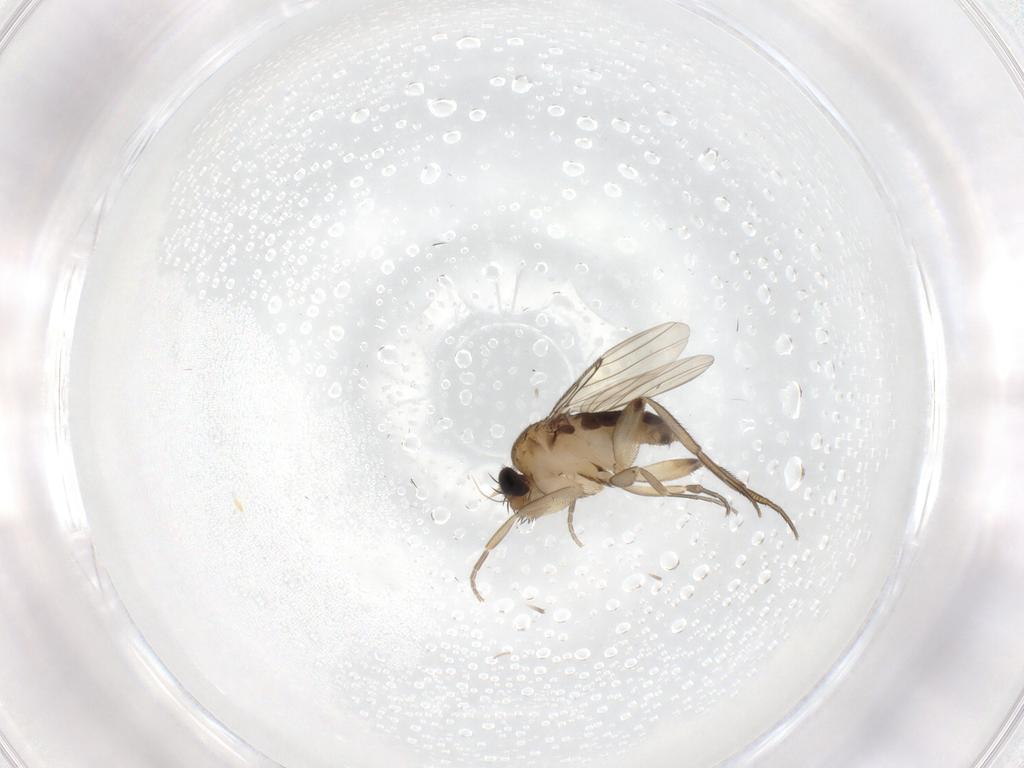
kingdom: Animalia
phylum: Arthropoda
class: Insecta
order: Diptera
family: Phoridae
